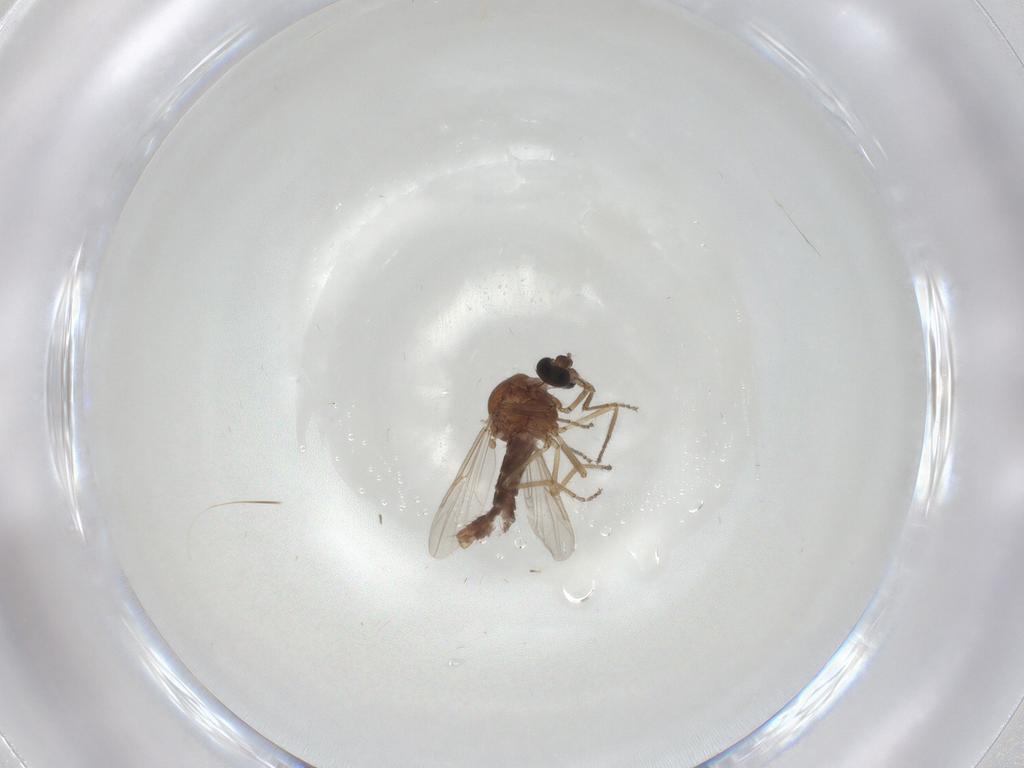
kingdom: Animalia
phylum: Arthropoda
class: Insecta
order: Diptera
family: Ceratopogonidae
